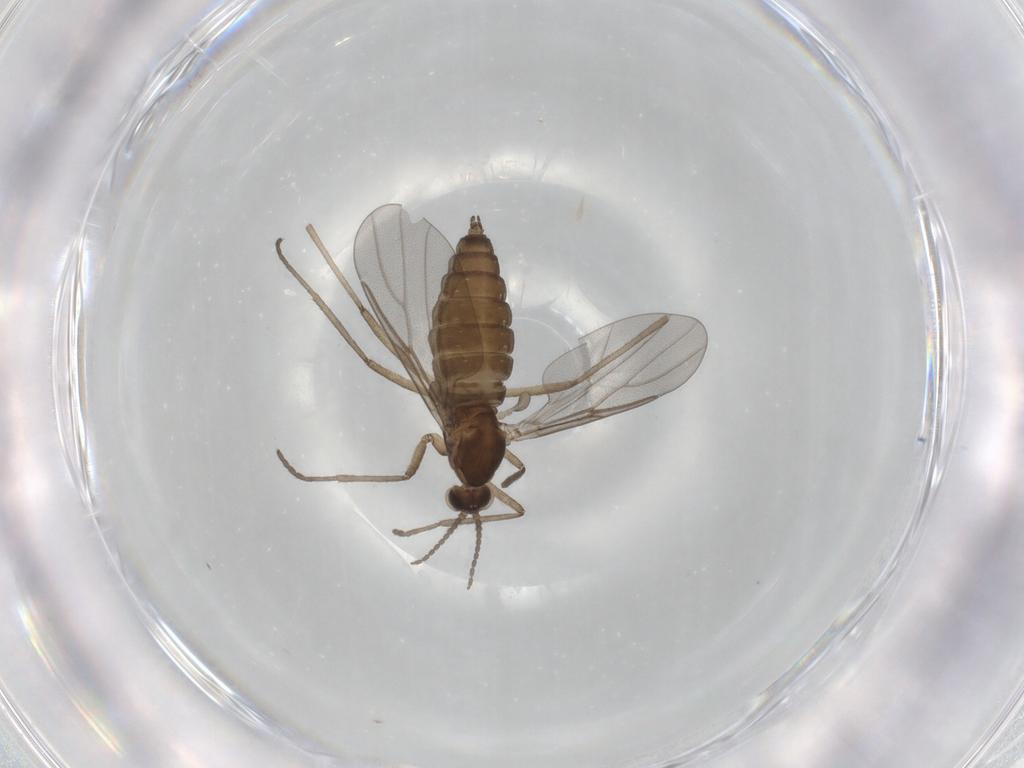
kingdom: Animalia
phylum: Arthropoda
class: Insecta
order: Diptera
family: Cecidomyiidae
